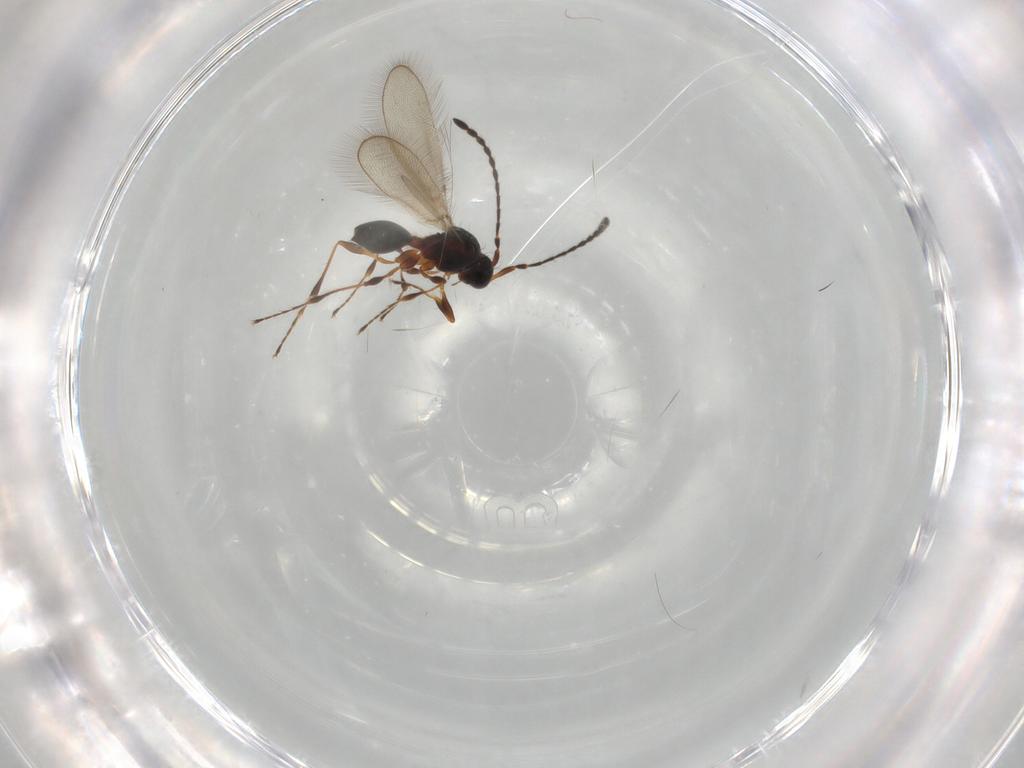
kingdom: Animalia
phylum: Arthropoda
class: Insecta
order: Hymenoptera
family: Diapriidae
